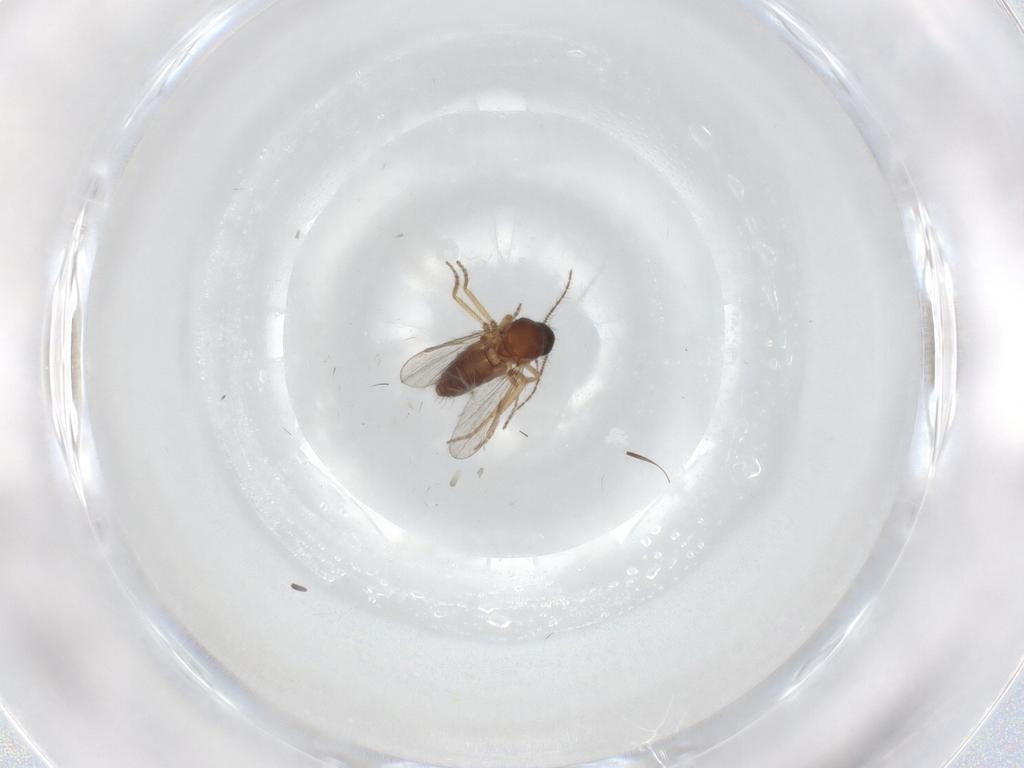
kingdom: Animalia
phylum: Arthropoda
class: Insecta
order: Diptera
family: Ceratopogonidae
